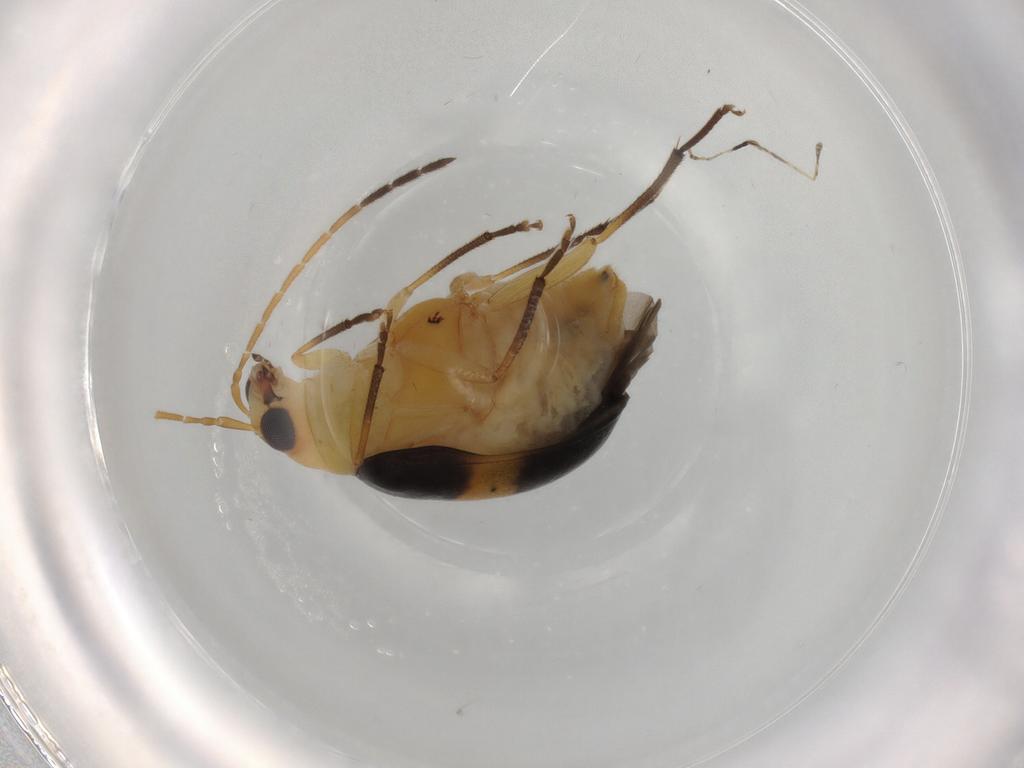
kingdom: Animalia
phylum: Arthropoda
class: Insecta
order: Coleoptera
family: Chrysomelidae
